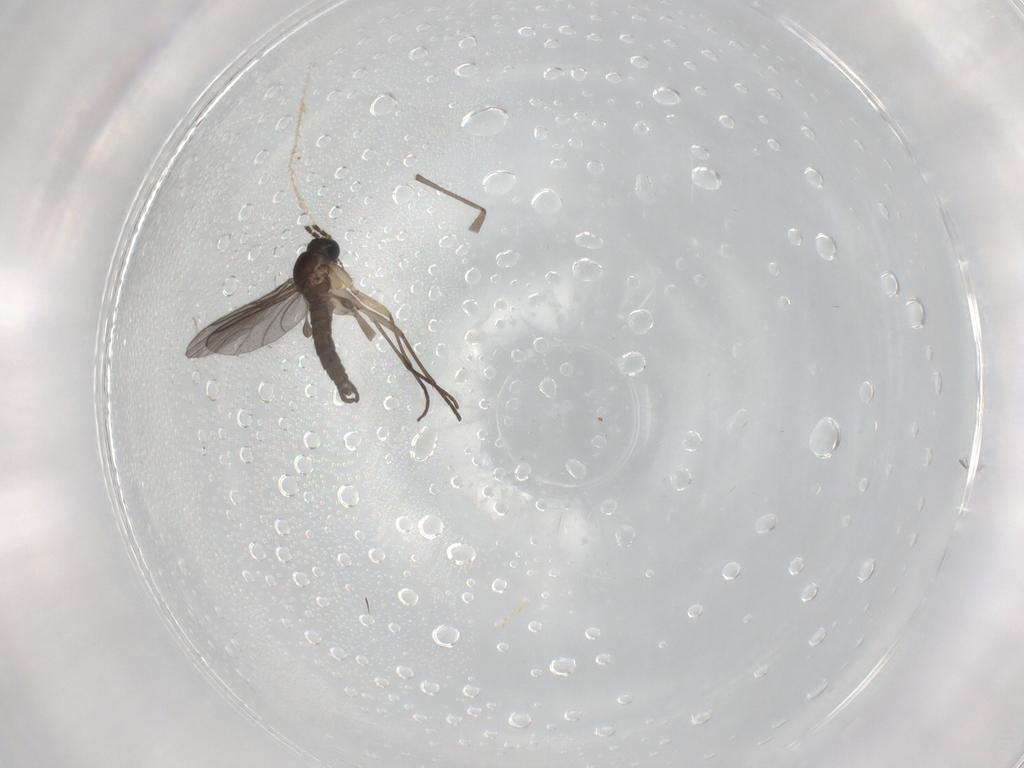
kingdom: Animalia
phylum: Arthropoda
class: Insecta
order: Diptera
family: Sciaridae
